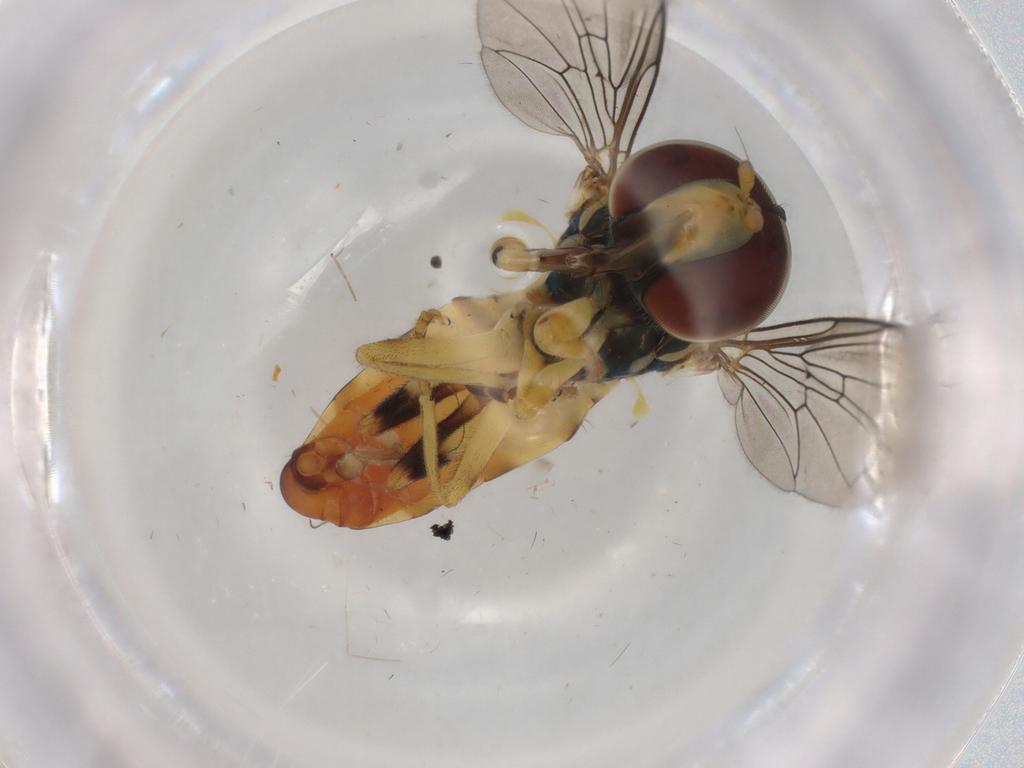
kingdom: Animalia
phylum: Arthropoda
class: Insecta
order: Diptera
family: Syrphidae
